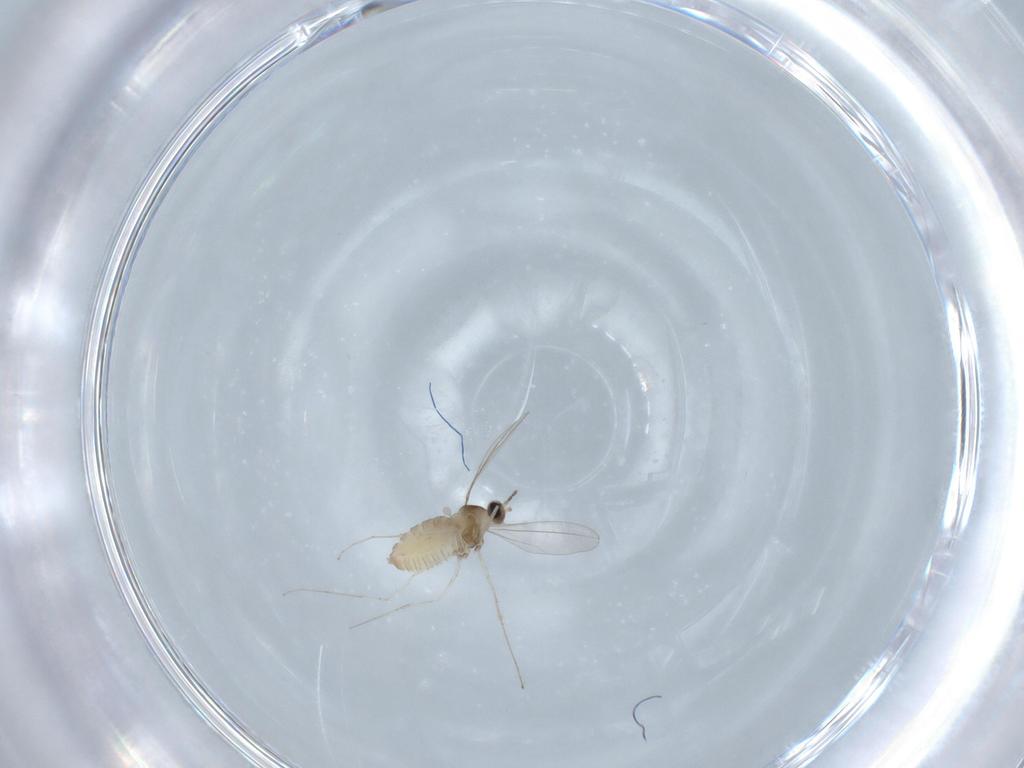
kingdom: Animalia
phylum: Arthropoda
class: Insecta
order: Diptera
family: Cecidomyiidae
